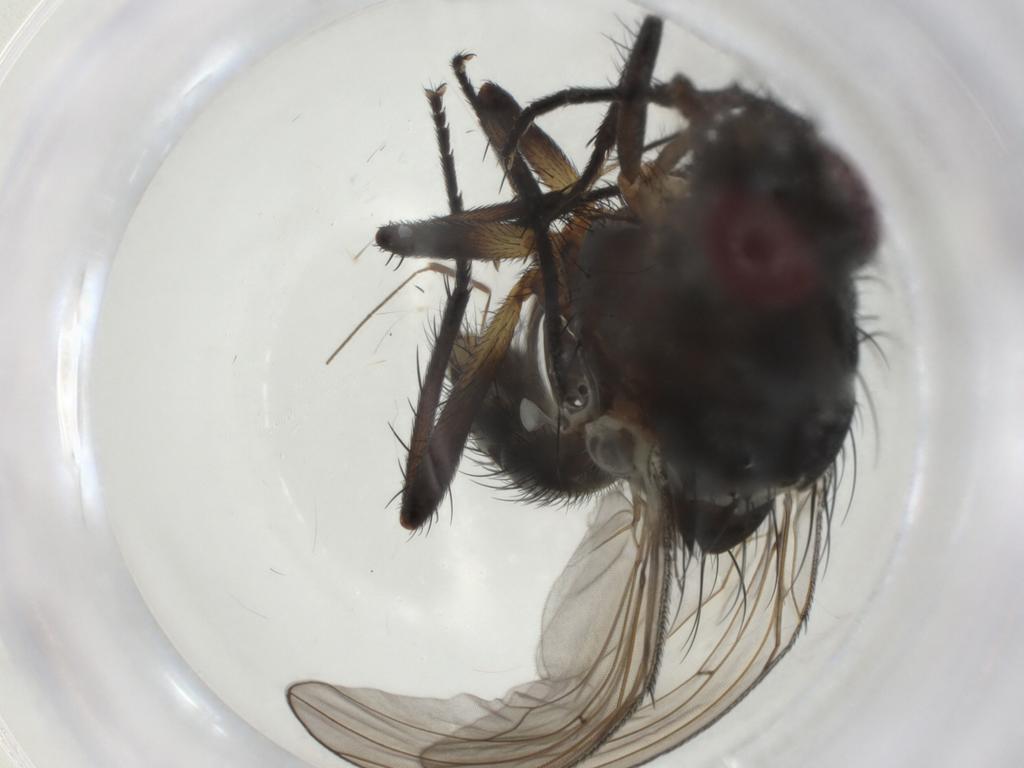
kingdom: Animalia
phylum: Arthropoda
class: Insecta
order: Diptera
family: Anthomyiidae
